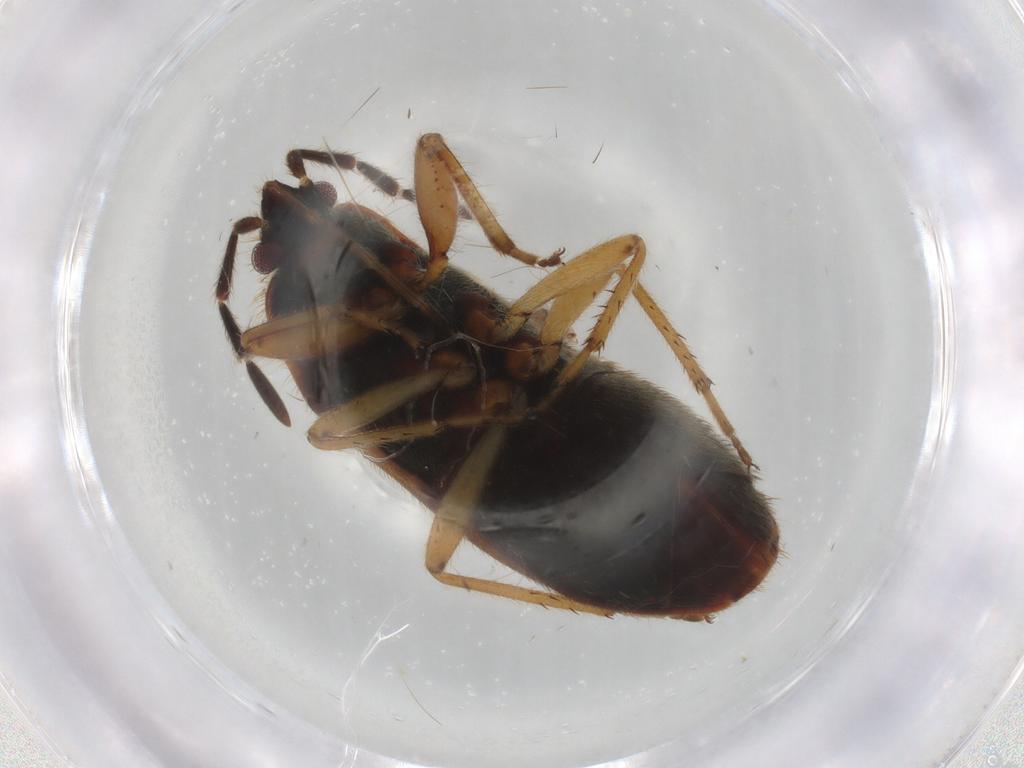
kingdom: Animalia
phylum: Arthropoda
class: Insecta
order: Hemiptera
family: Rhyparochromidae
